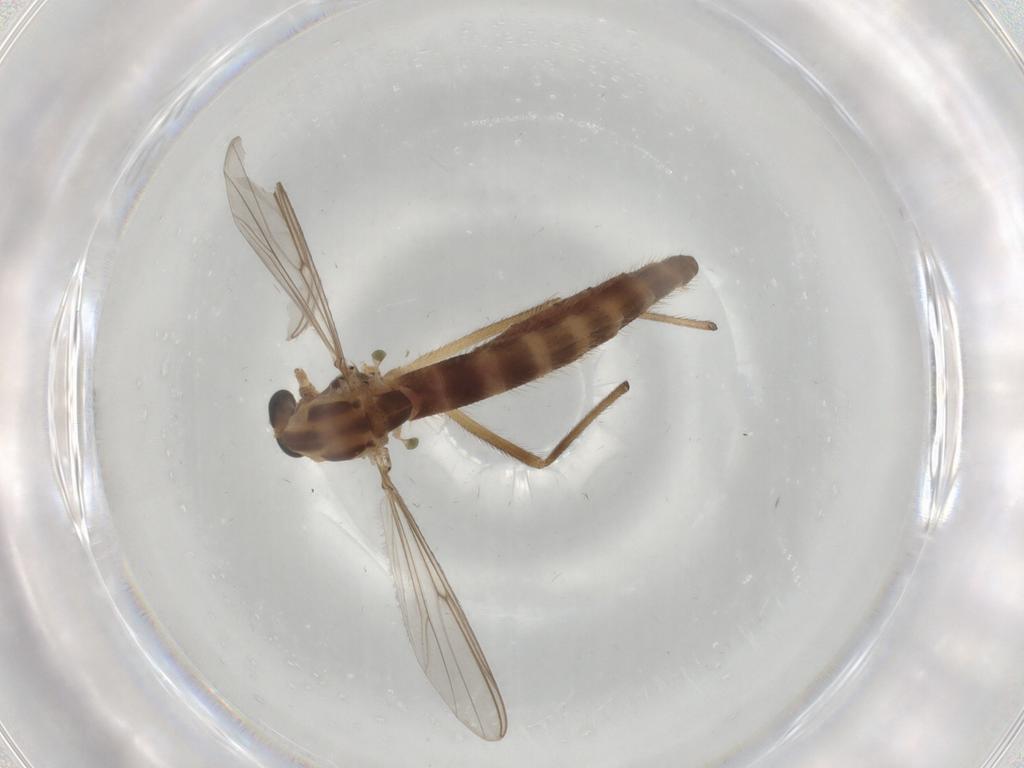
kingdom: Animalia
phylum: Arthropoda
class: Insecta
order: Diptera
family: Chironomidae
